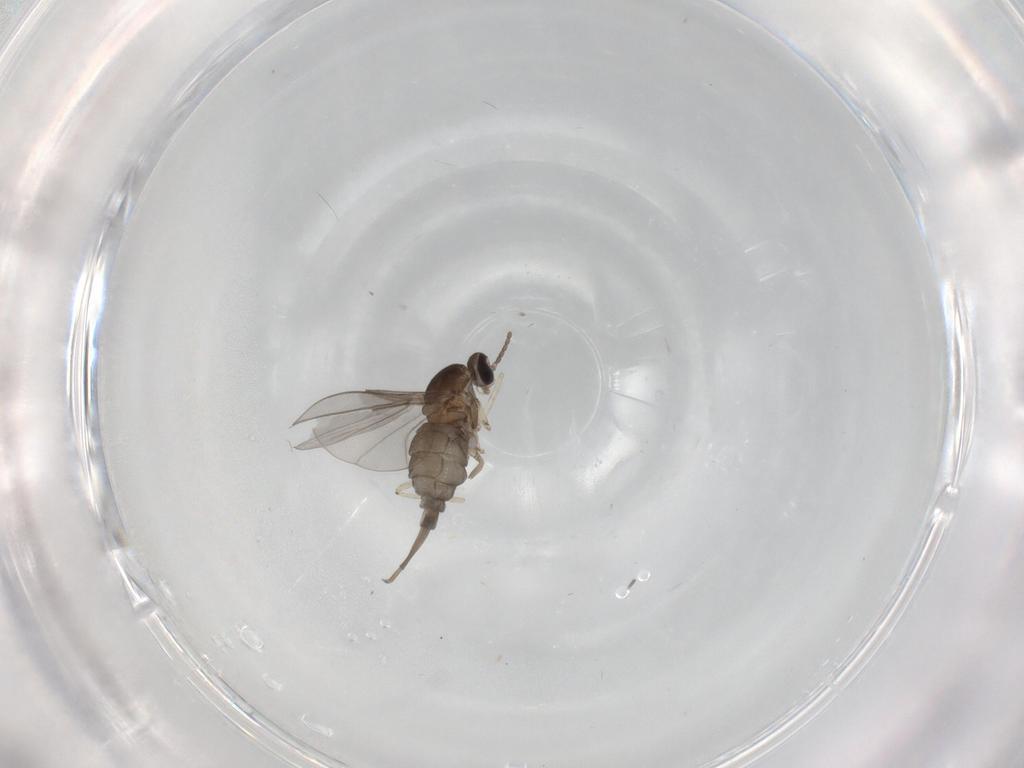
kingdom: Animalia
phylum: Arthropoda
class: Insecta
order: Diptera
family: Cecidomyiidae
